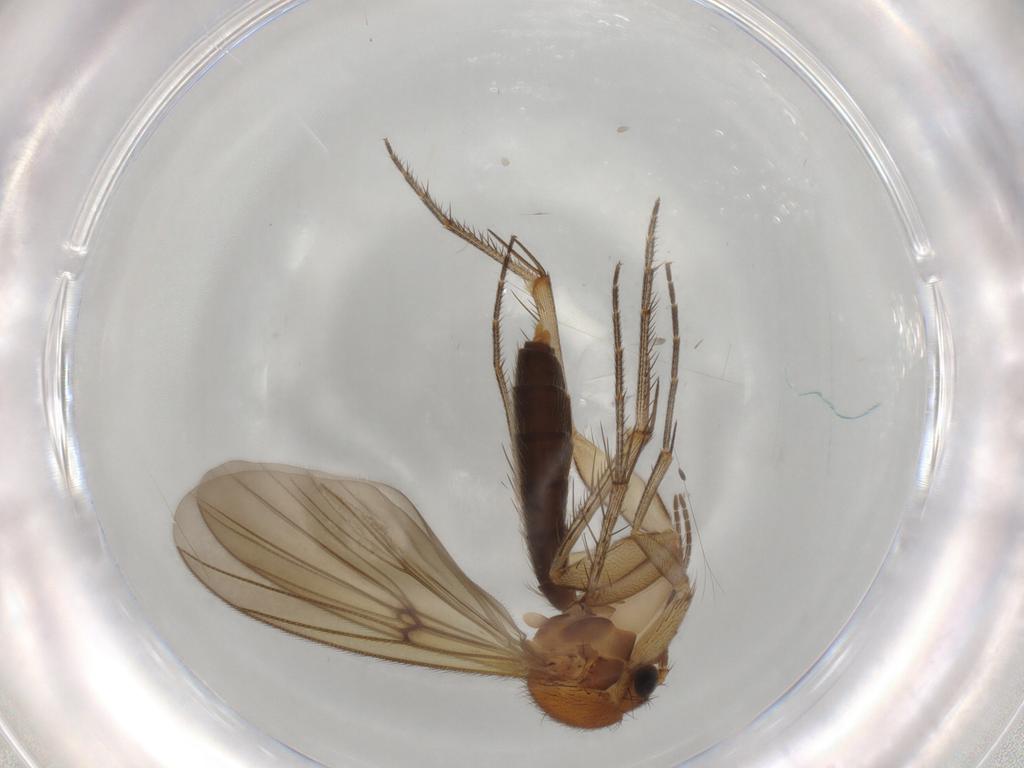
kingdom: Animalia
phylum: Arthropoda
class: Insecta
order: Diptera
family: Mycetophilidae
